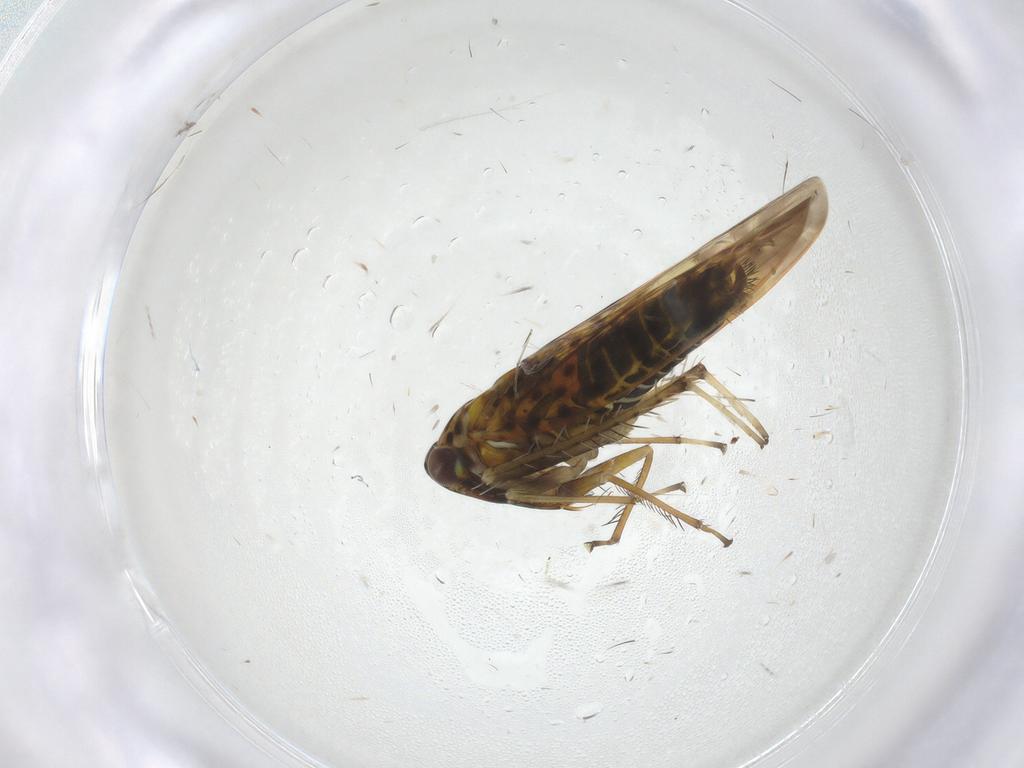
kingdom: Animalia
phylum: Arthropoda
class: Insecta
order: Hemiptera
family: Cicadellidae
